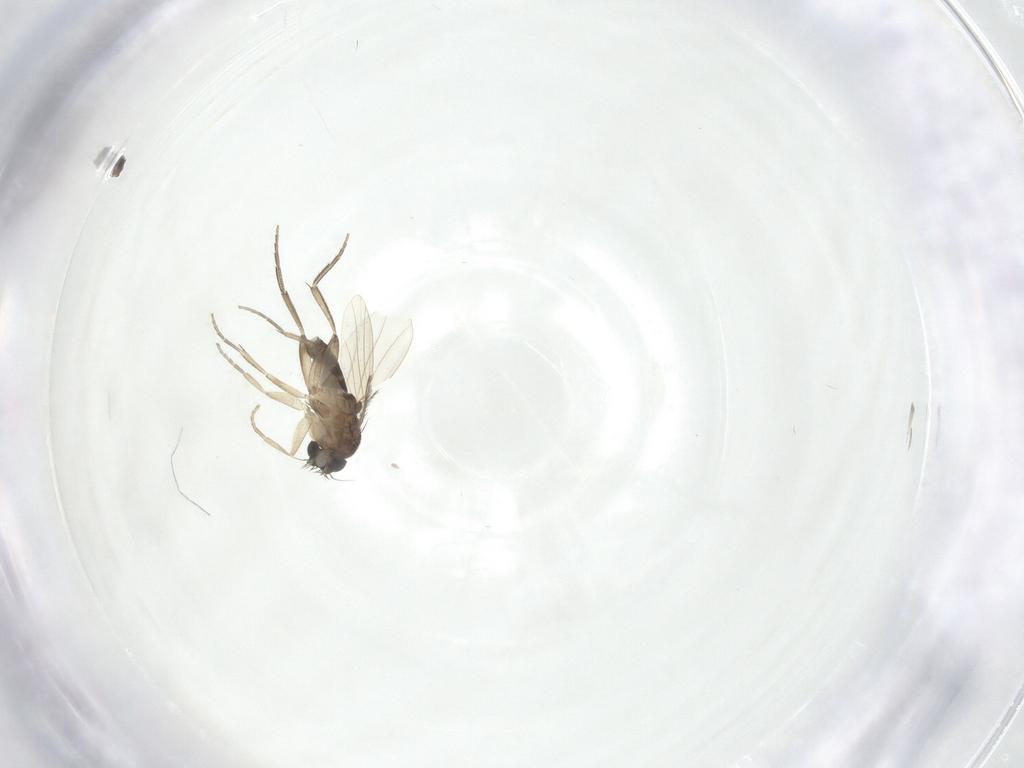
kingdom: Animalia
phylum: Arthropoda
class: Insecta
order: Diptera
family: Phoridae
